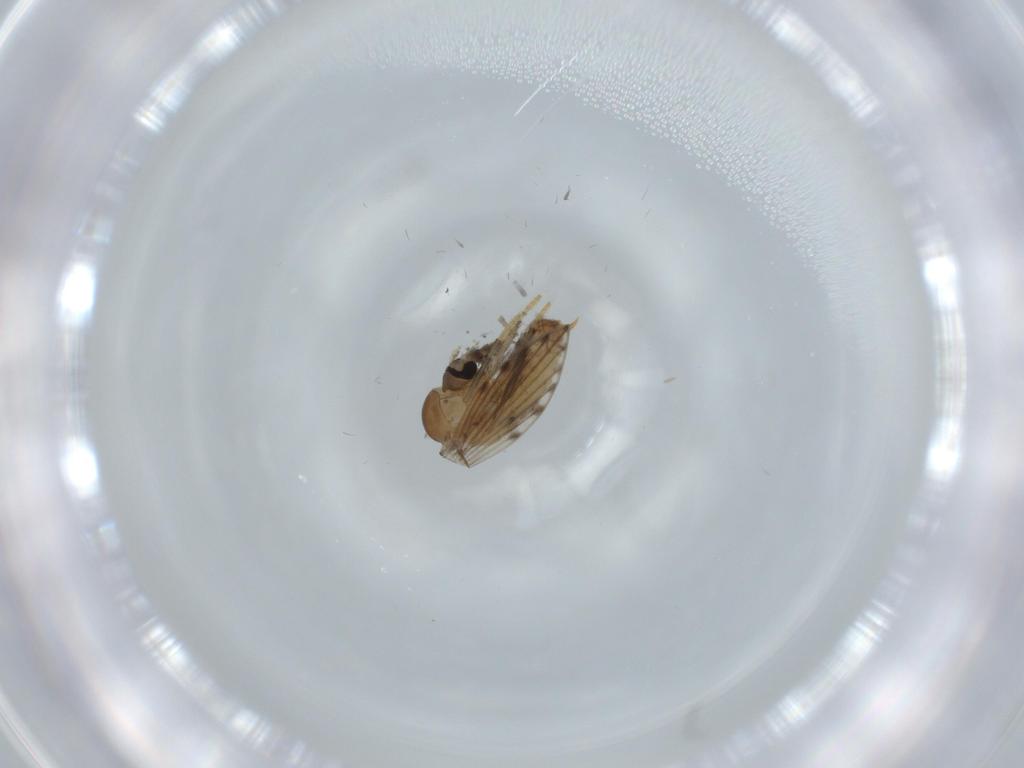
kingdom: Animalia
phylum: Arthropoda
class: Insecta
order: Diptera
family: Psychodidae
